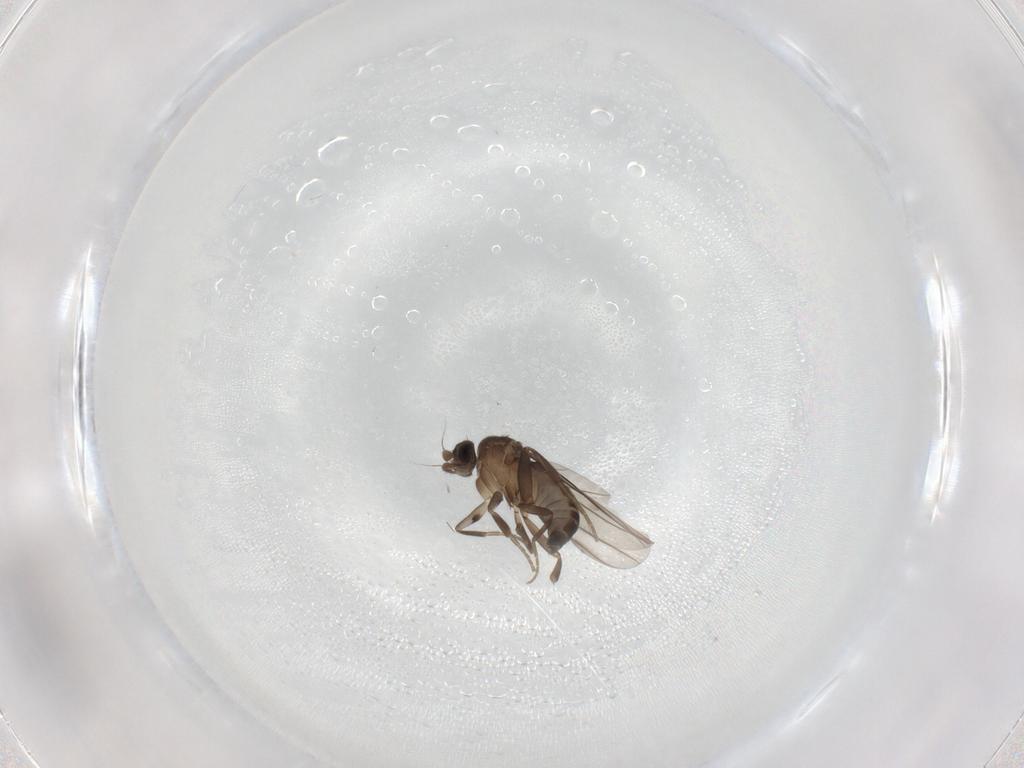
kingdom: Animalia
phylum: Arthropoda
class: Insecta
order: Diptera
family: Phoridae
